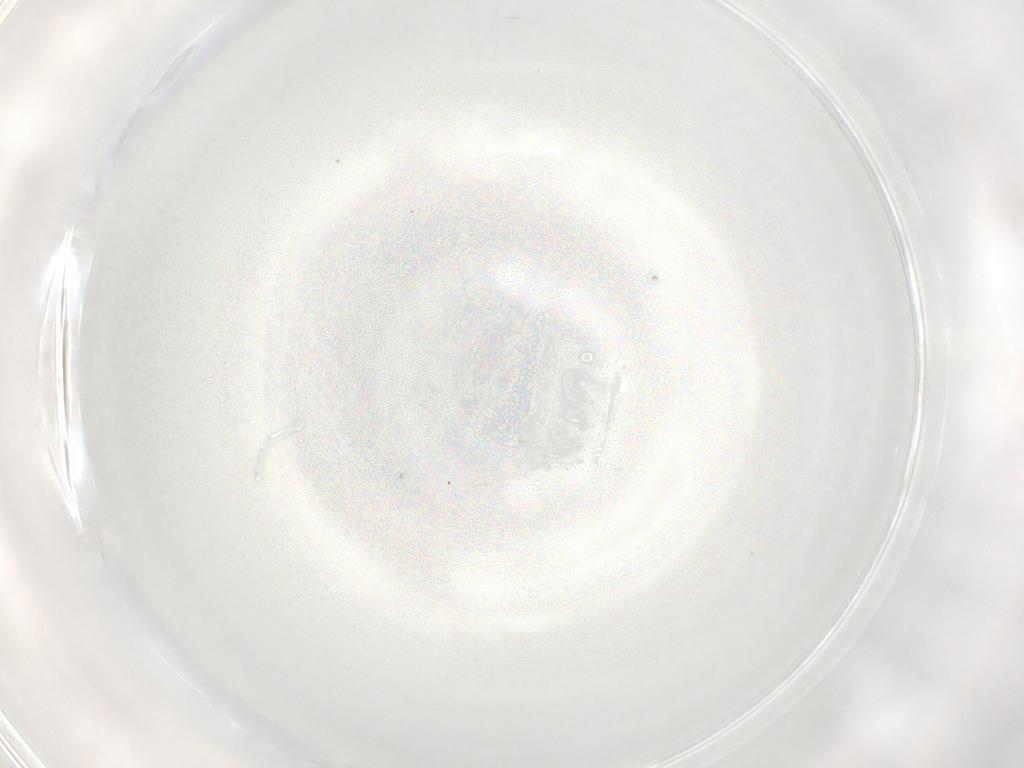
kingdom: Animalia
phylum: Arthropoda
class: Insecta
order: Diptera
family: Cecidomyiidae
